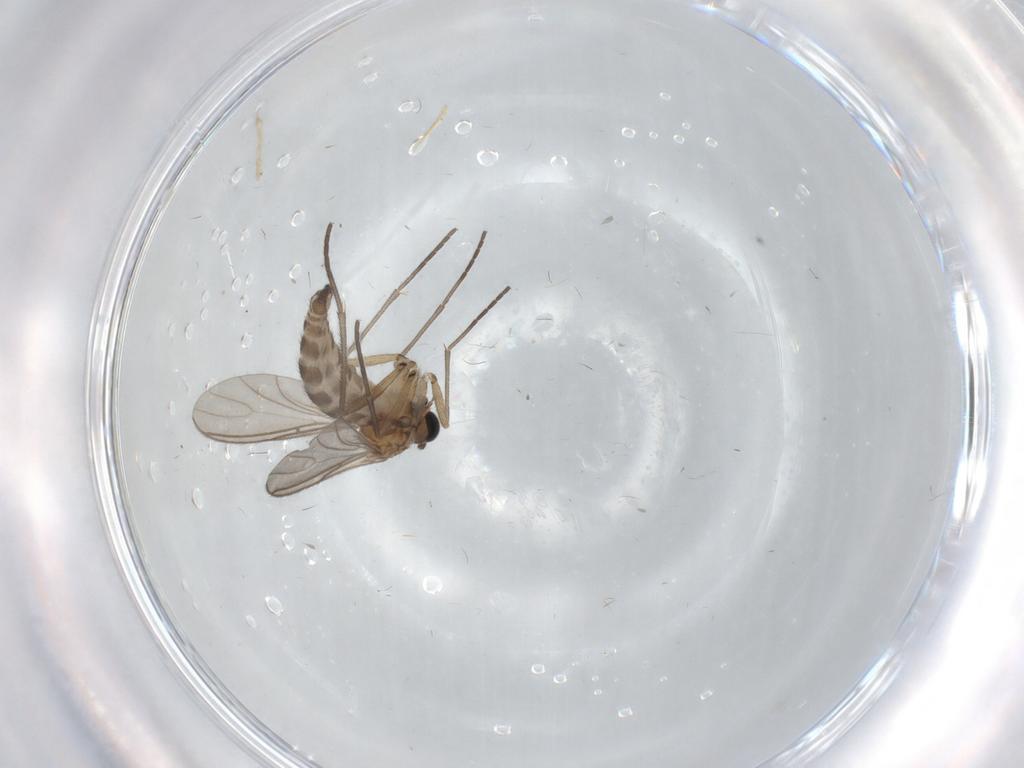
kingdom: Animalia
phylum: Arthropoda
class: Insecta
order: Diptera
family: Sciaridae
